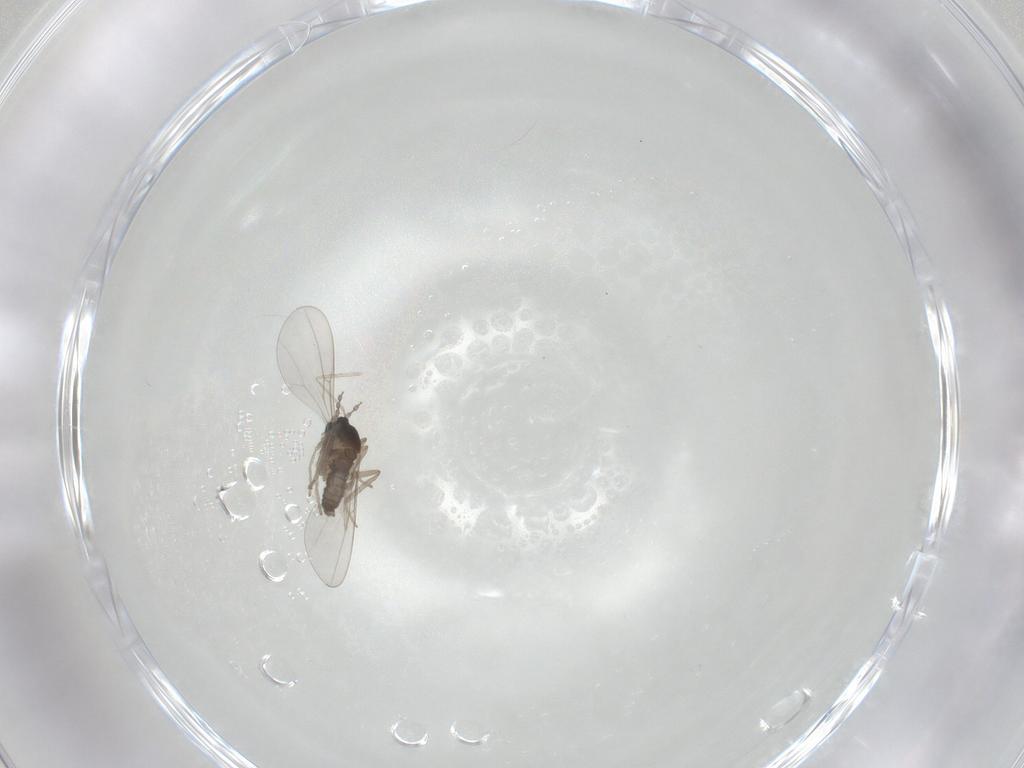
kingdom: Animalia
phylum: Arthropoda
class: Insecta
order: Diptera
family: Cecidomyiidae
